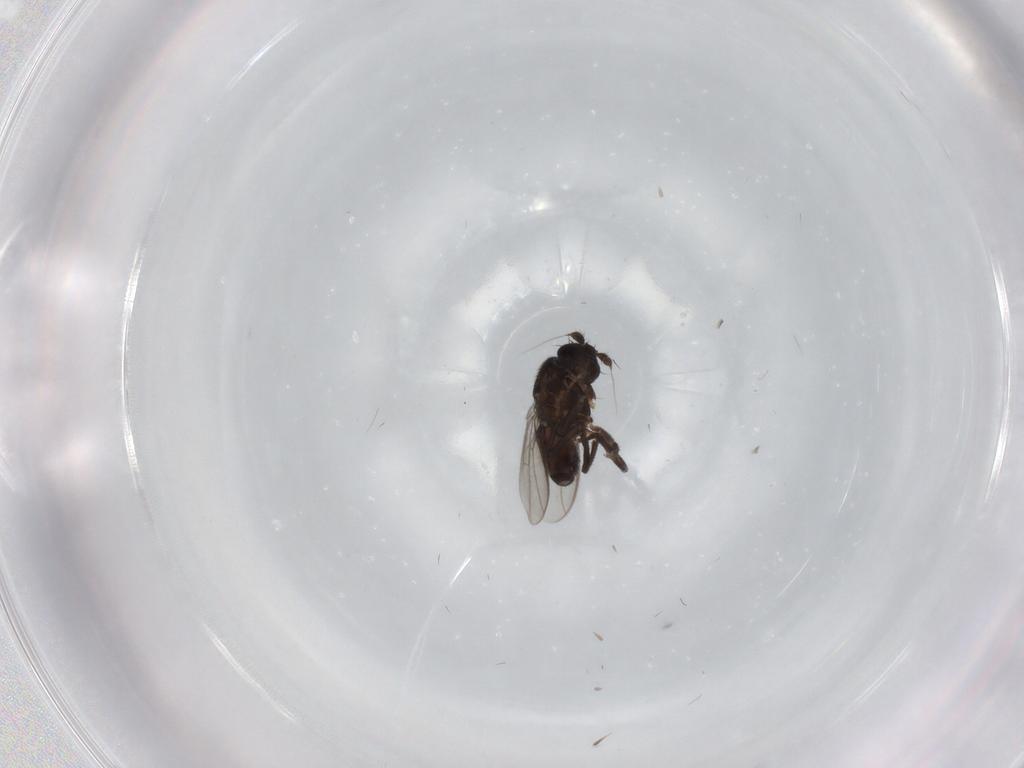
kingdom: Animalia
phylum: Arthropoda
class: Insecta
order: Diptera
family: Sphaeroceridae
